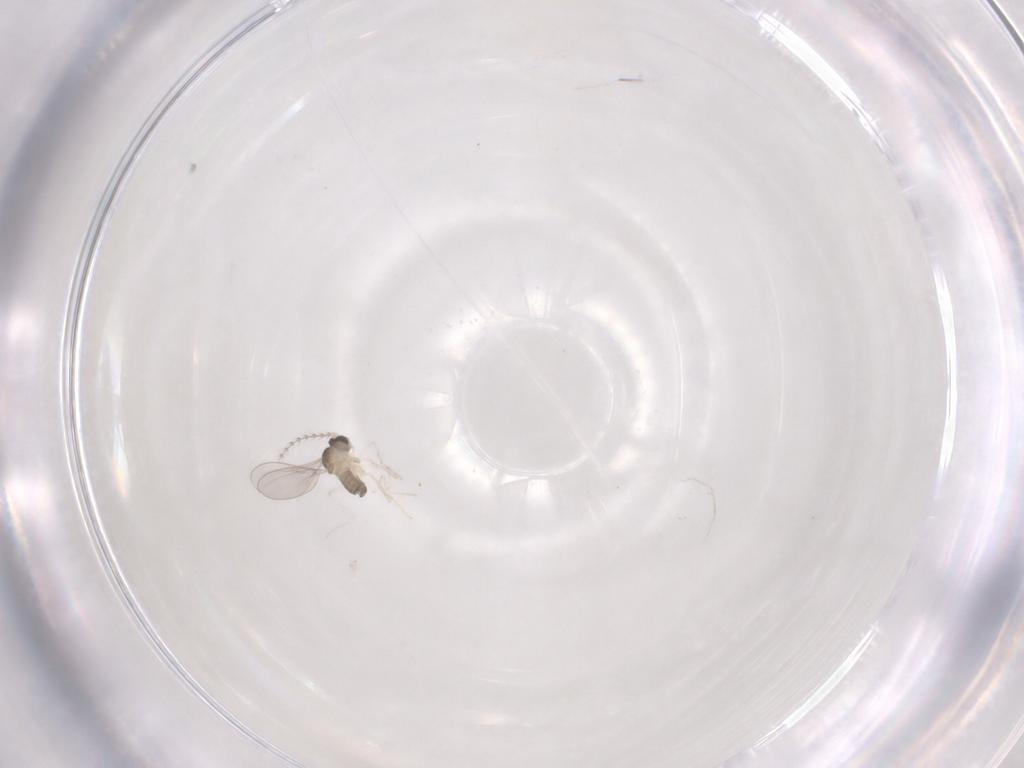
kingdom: Animalia
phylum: Arthropoda
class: Insecta
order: Diptera
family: Cecidomyiidae
